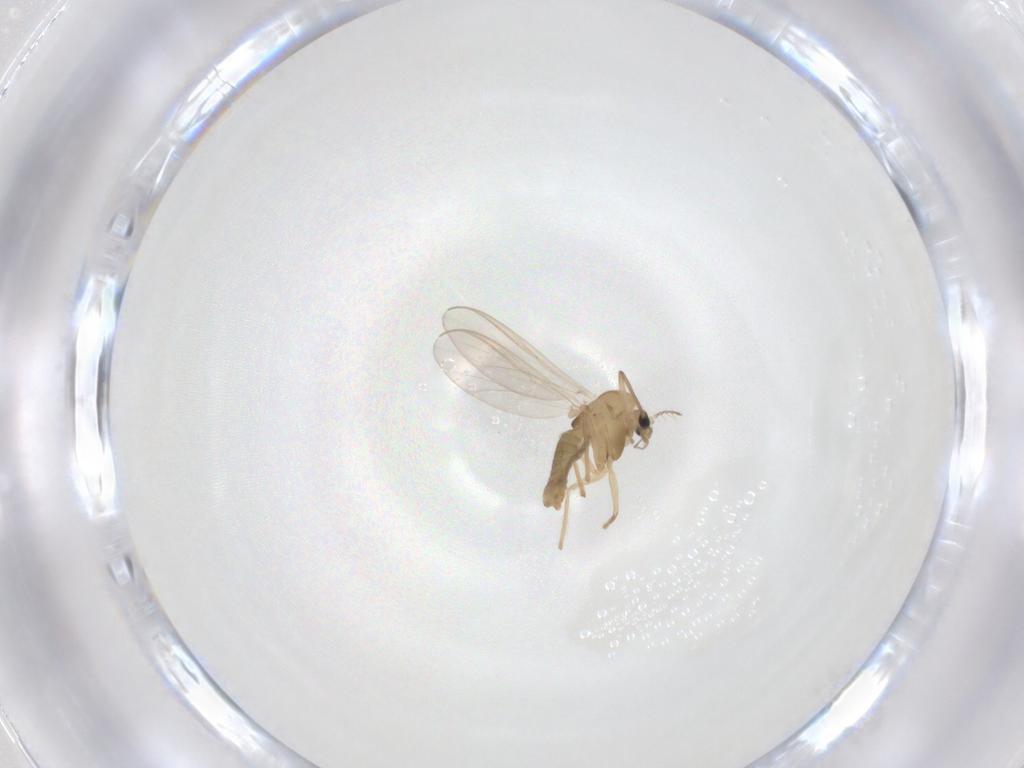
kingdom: Animalia
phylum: Arthropoda
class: Insecta
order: Diptera
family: Chironomidae
